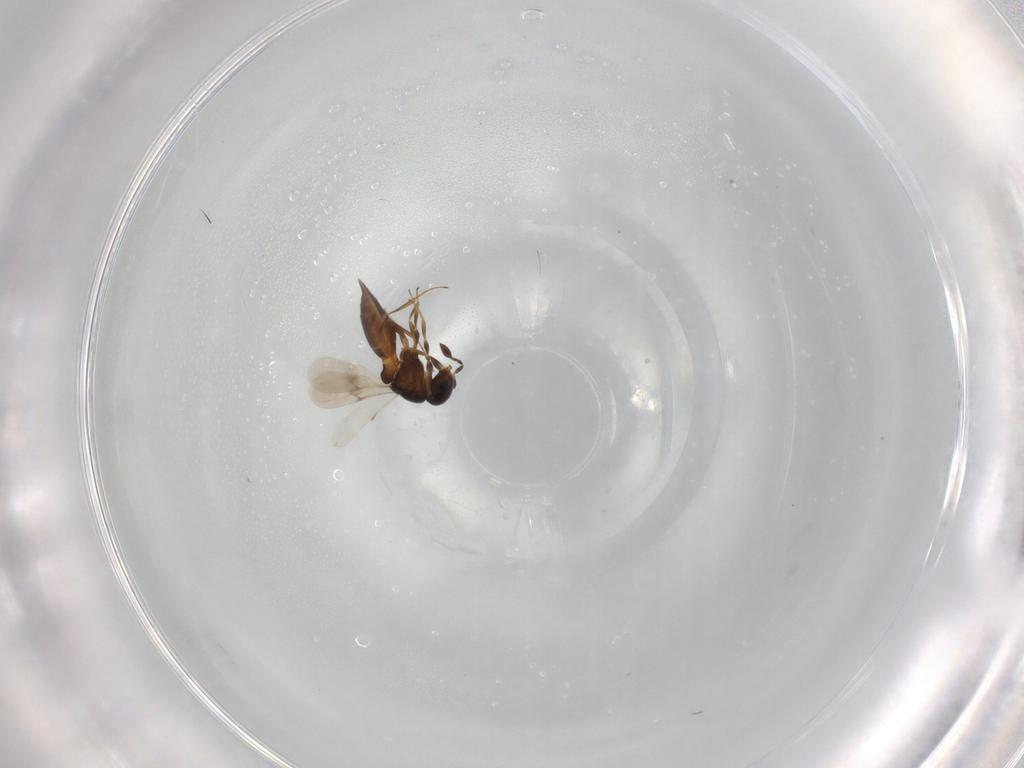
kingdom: Animalia
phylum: Arthropoda
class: Insecta
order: Hymenoptera
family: Scelionidae
